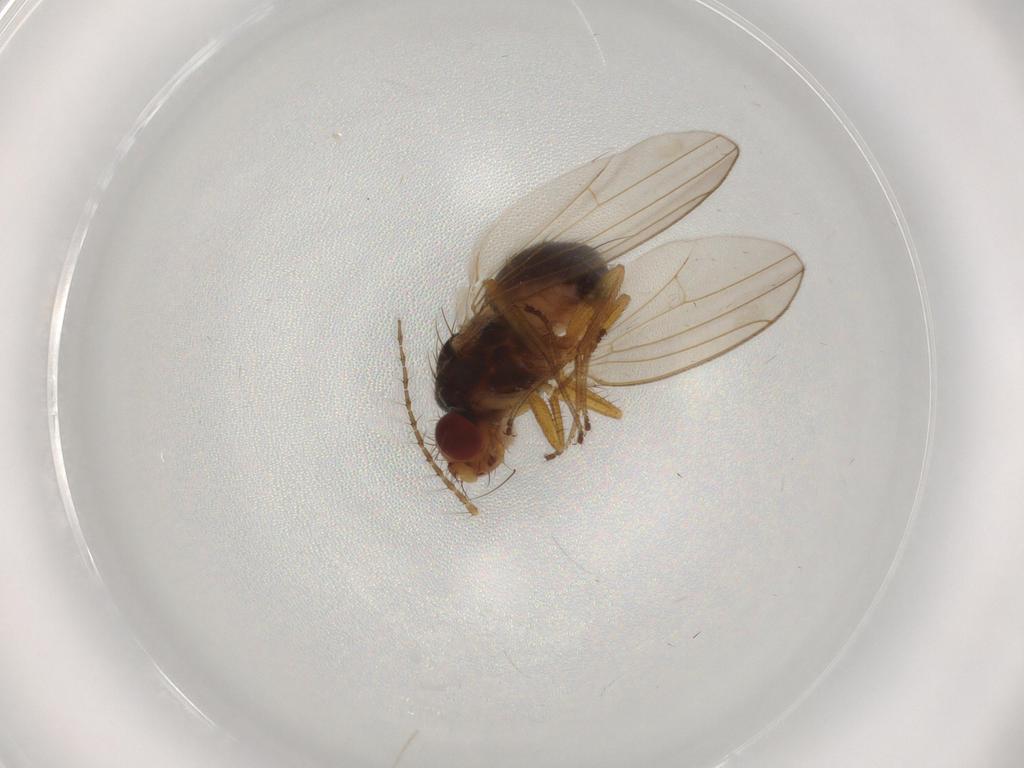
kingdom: Animalia
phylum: Arthropoda
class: Insecta
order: Diptera
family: Drosophilidae
